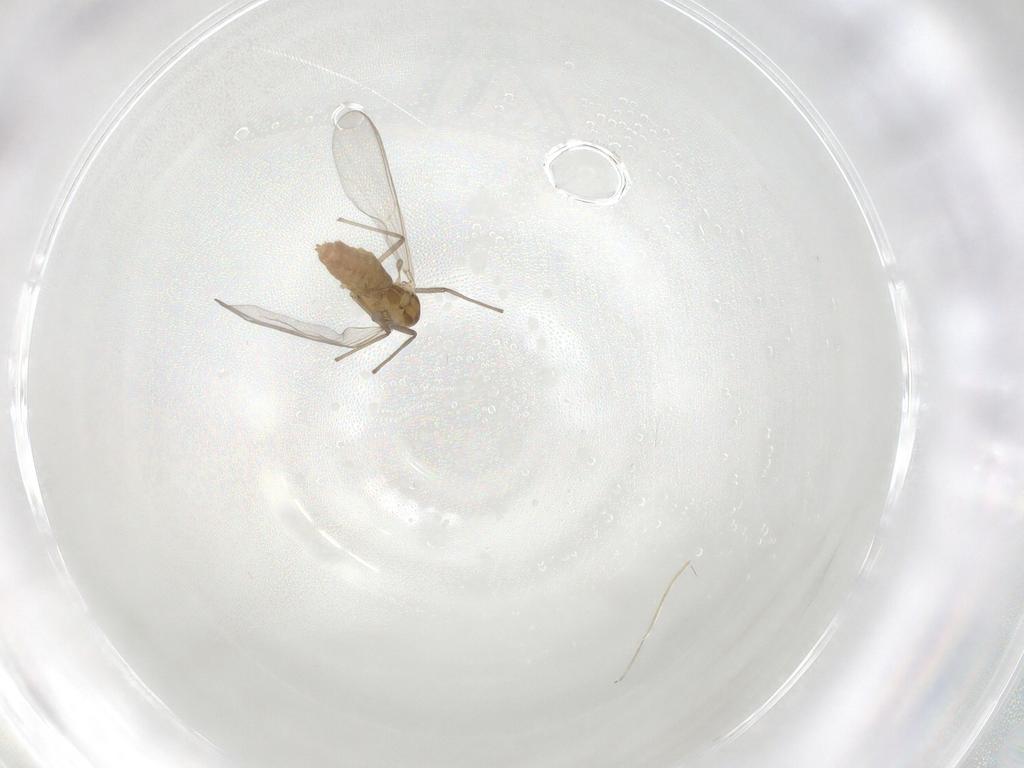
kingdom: Animalia
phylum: Arthropoda
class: Insecta
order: Diptera
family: Chironomidae
